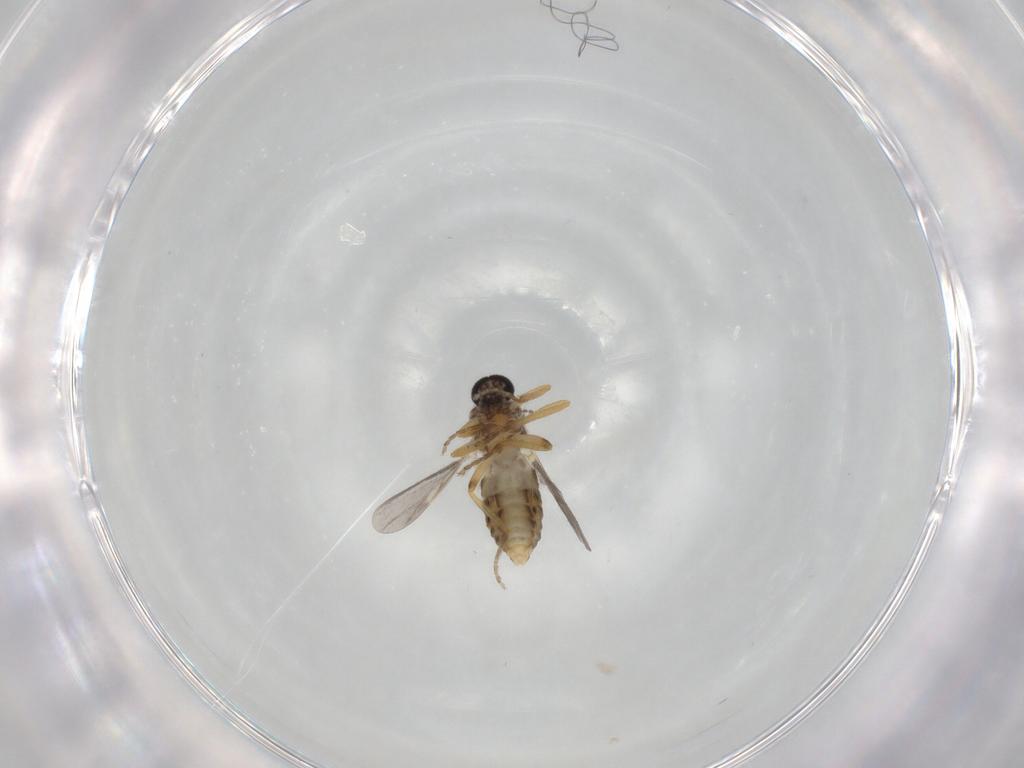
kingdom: Animalia
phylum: Arthropoda
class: Insecta
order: Diptera
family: Ceratopogonidae
